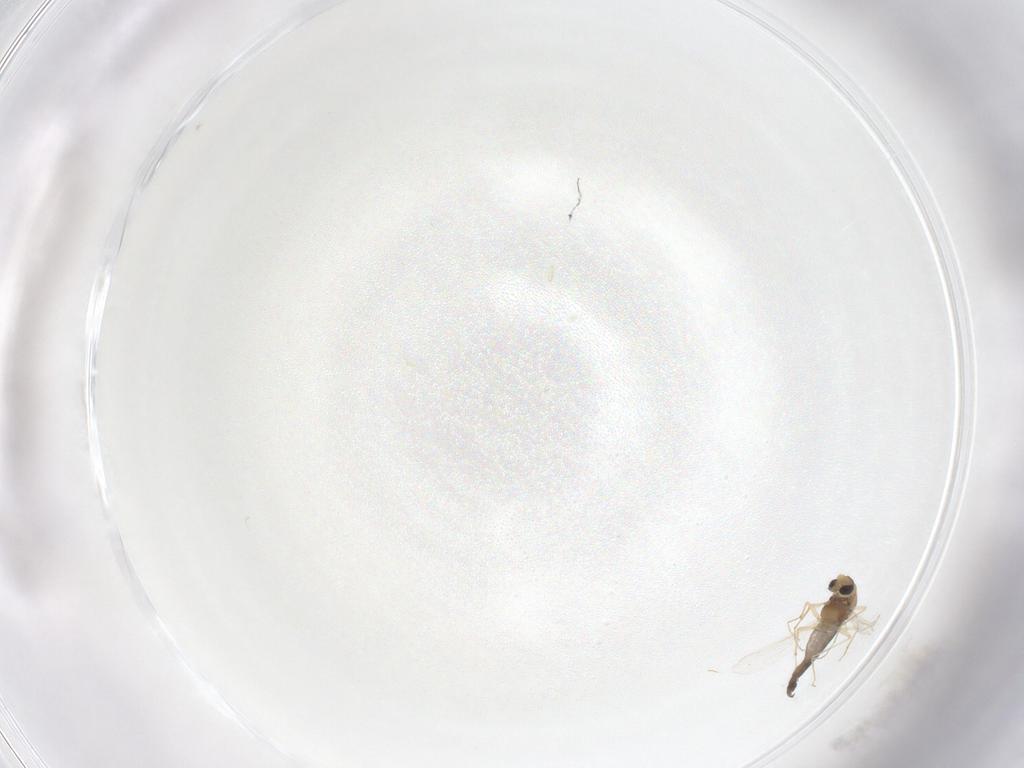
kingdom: Animalia
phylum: Arthropoda
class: Insecta
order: Diptera
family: Chironomidae
